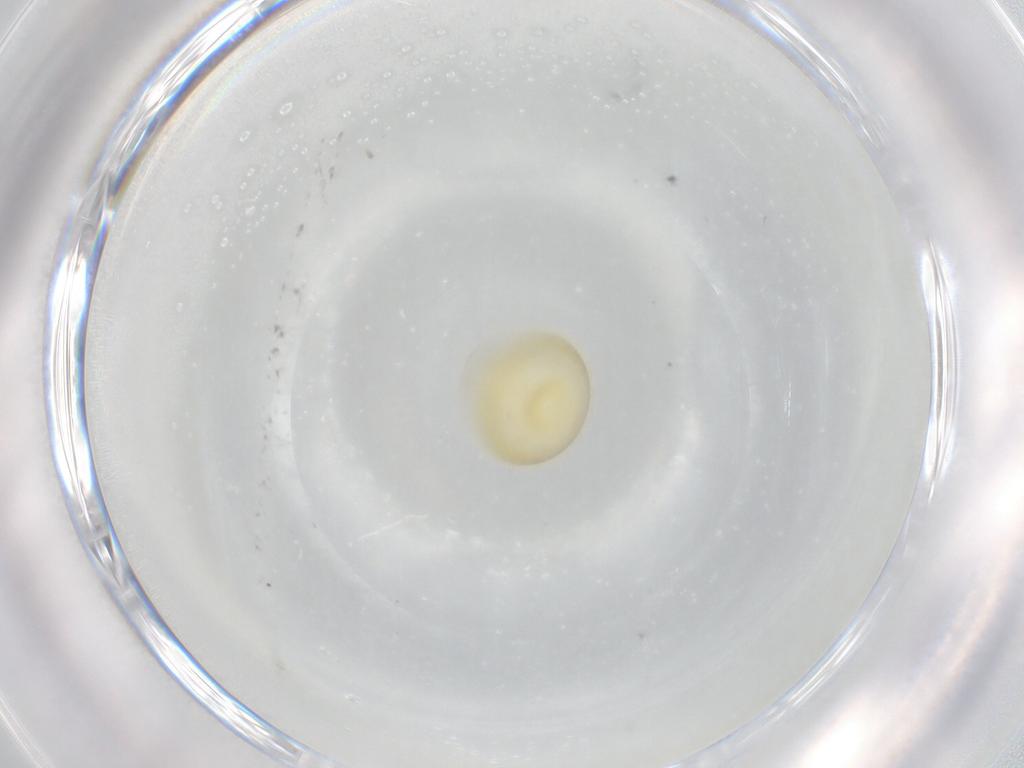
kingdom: Animalia
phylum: Arthropoda
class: Insecta
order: Lepidoptera
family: Erebidae
